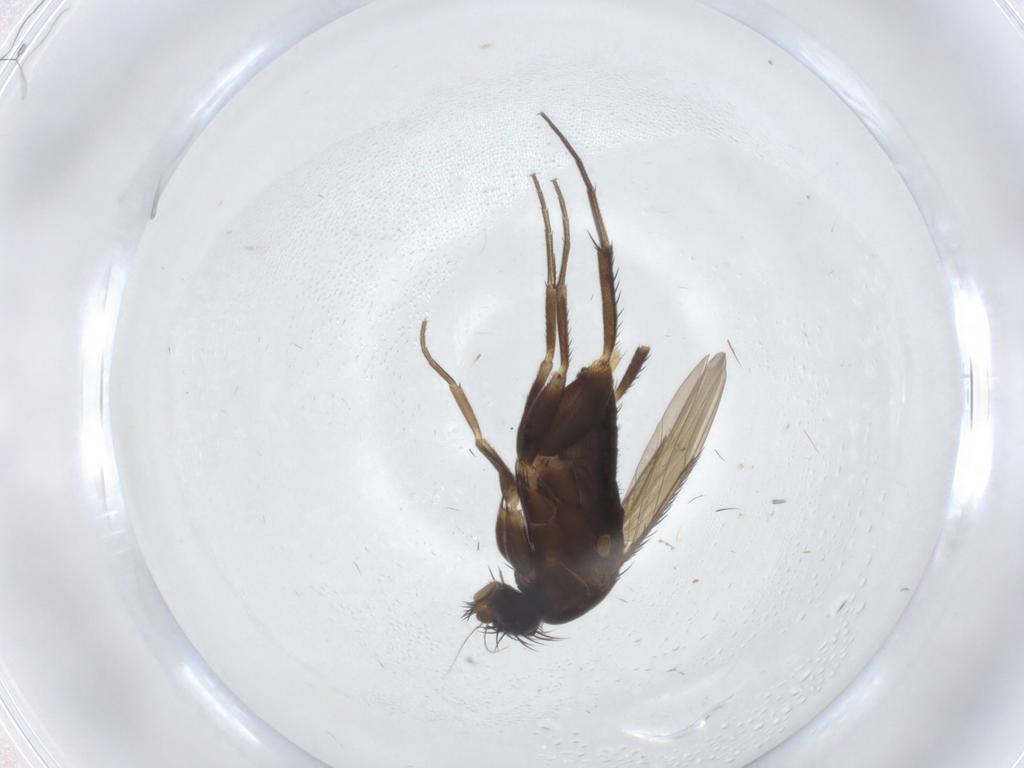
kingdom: Animalia
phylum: Arthropoda
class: Insecta
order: Diptera
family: Phoridae
